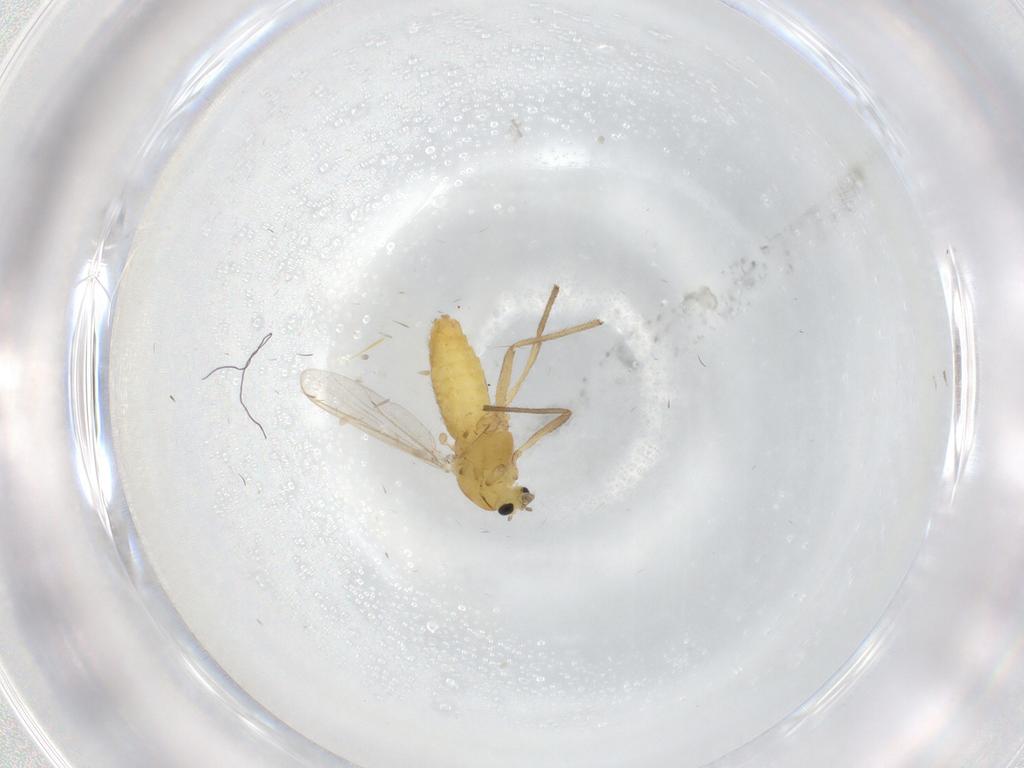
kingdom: Animalia
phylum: Arthropoda
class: Insecta
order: Diptera
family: Chironomidae
